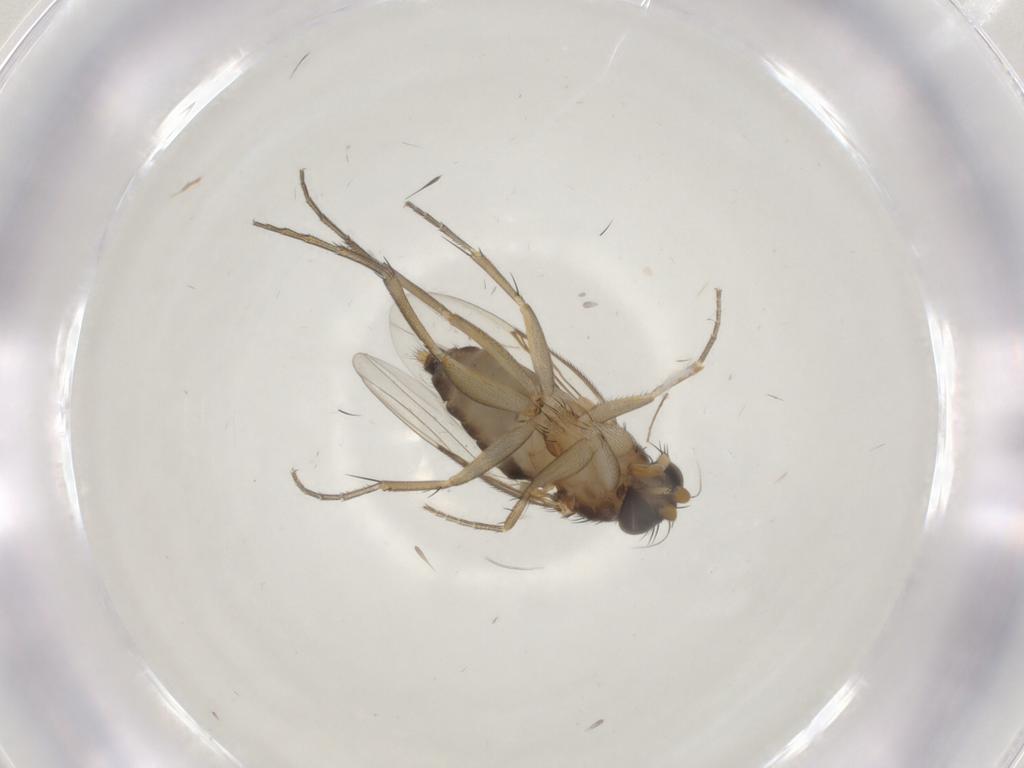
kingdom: Animalia
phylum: Arthropoda
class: Insecta
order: Diptera
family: Phoridae
